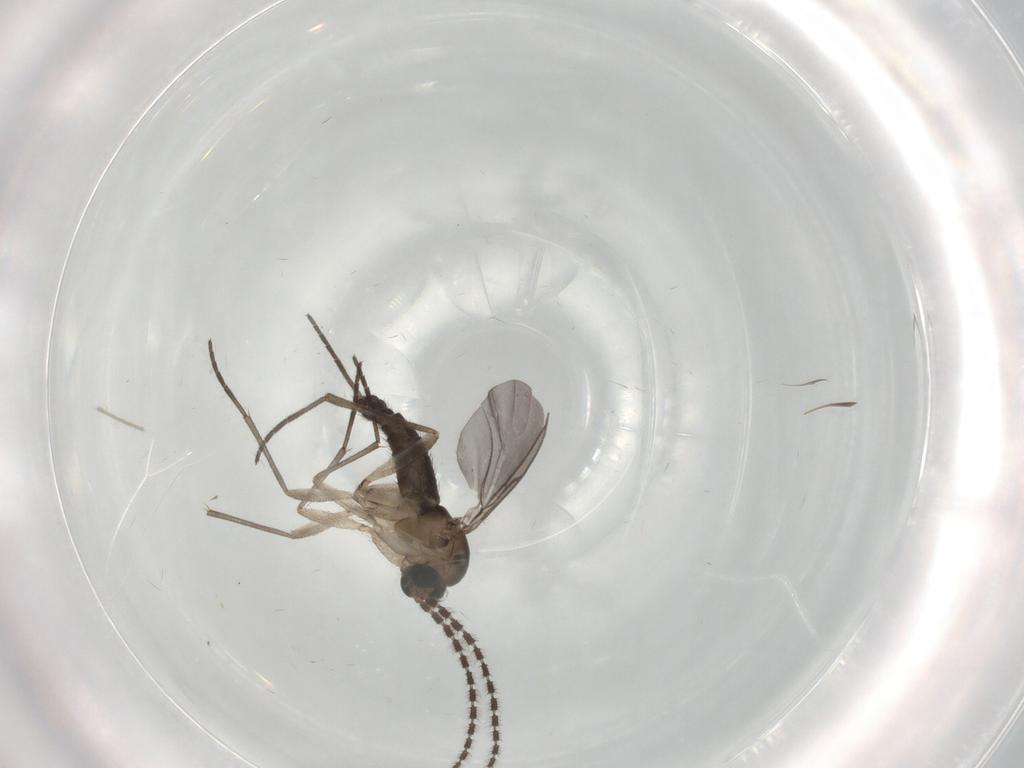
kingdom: Animalia
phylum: Arthropoda
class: Insecta
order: Diptera
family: Sciaridae
